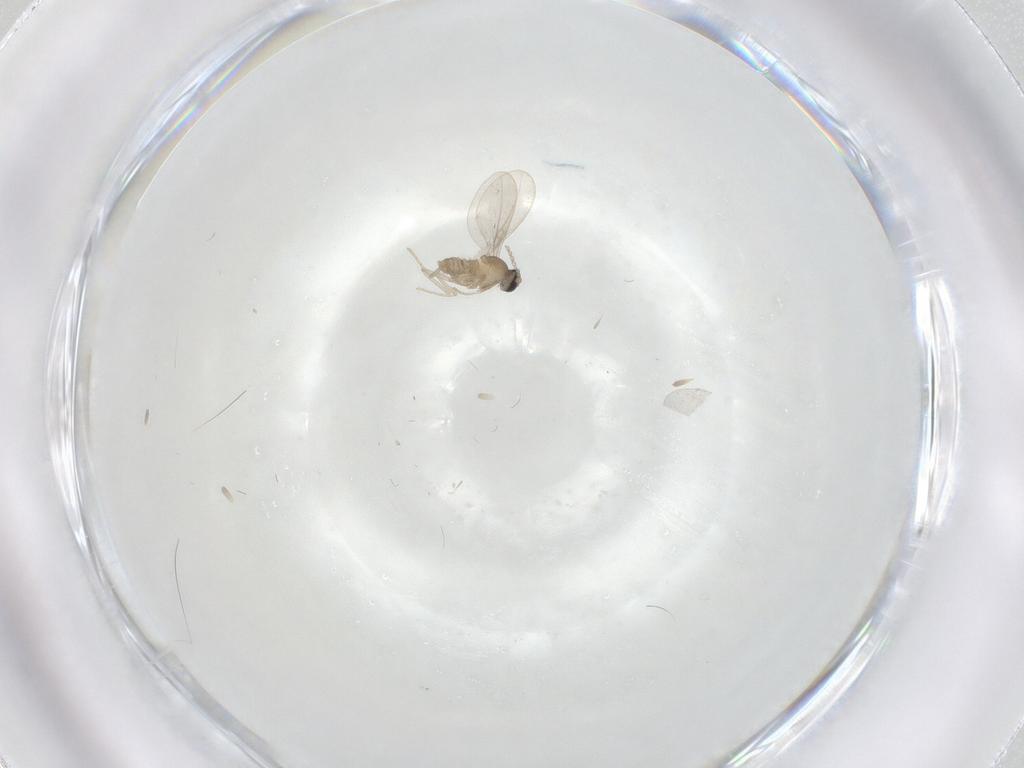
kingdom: Animalia
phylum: Arthropoda
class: Insecta
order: Diptera
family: Cecidomyiidae
